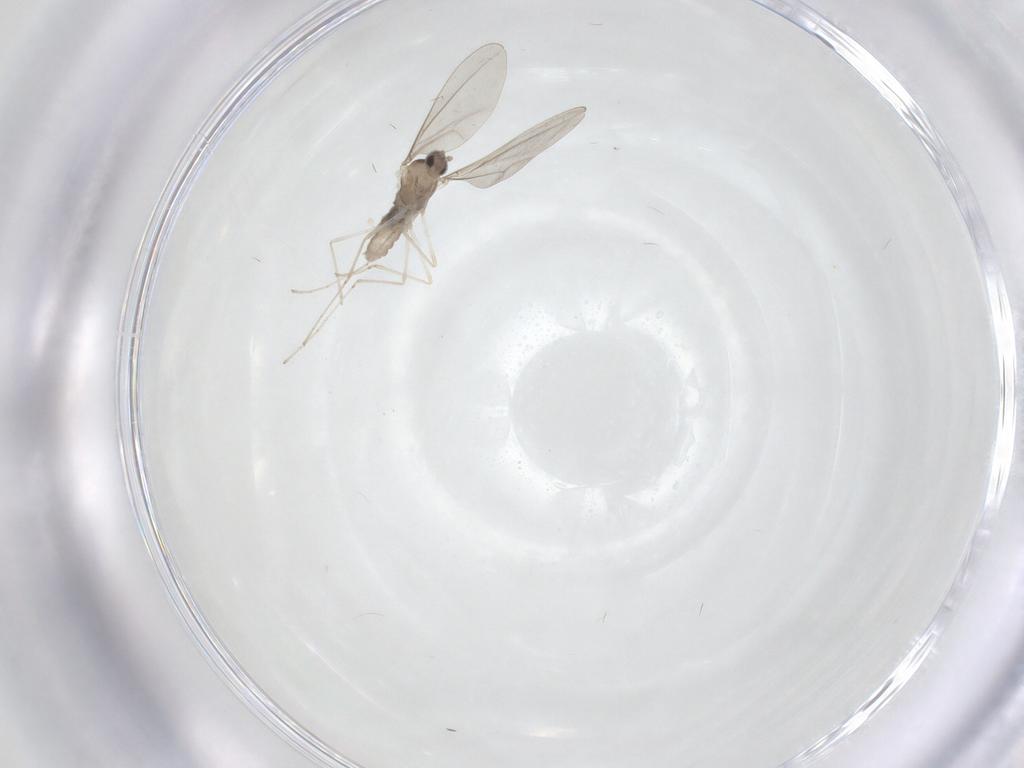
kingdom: Animalia
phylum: Arthropoda
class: Insecta
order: Diptera
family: Cecidomyiidae
